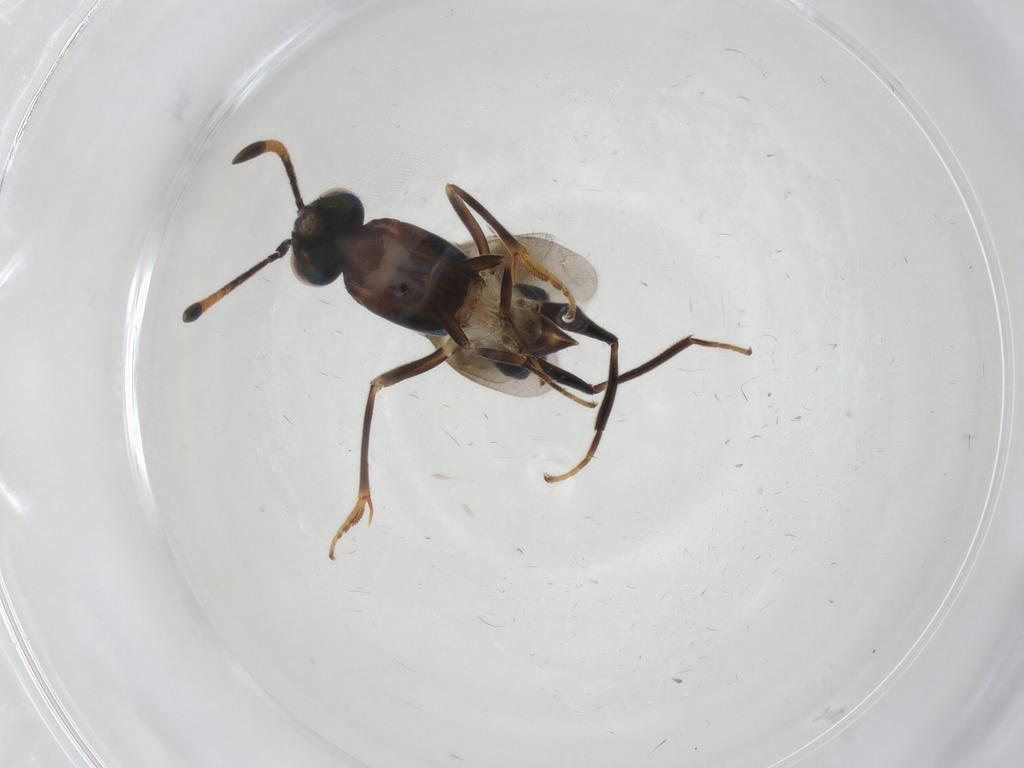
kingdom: Animalia
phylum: Arthropoda
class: Insecta
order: Hymenoptera
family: Eupelmidae
